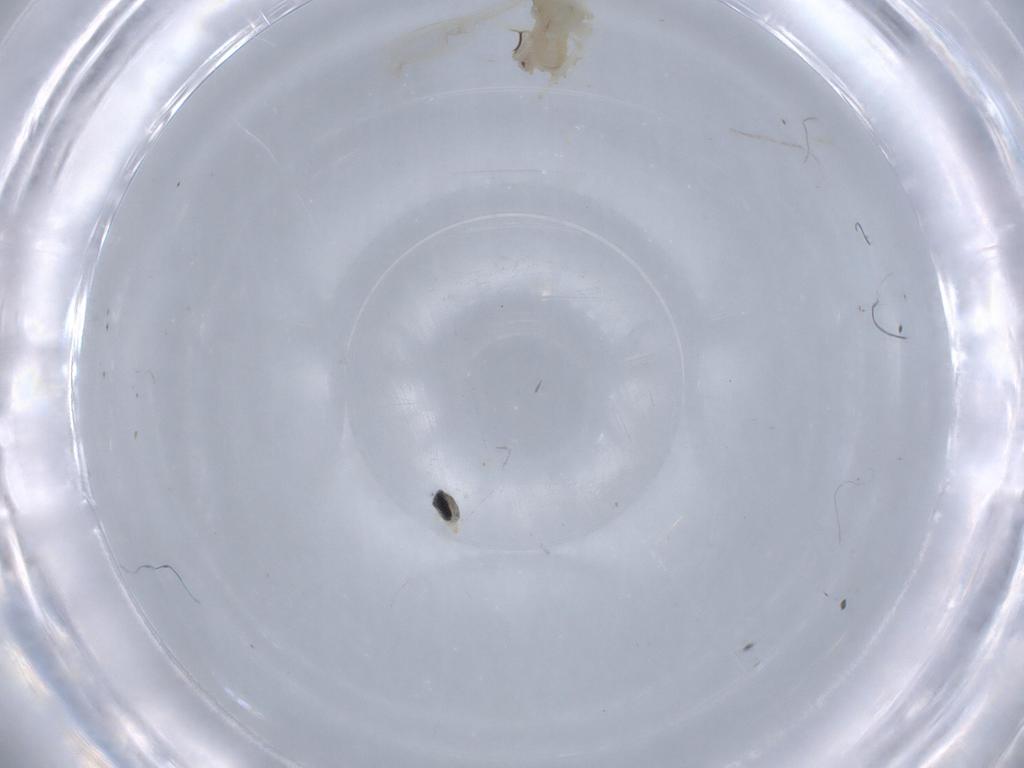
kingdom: Animalia
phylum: Arthropoda
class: Insecta
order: Diptera
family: Cecidomyiidae
